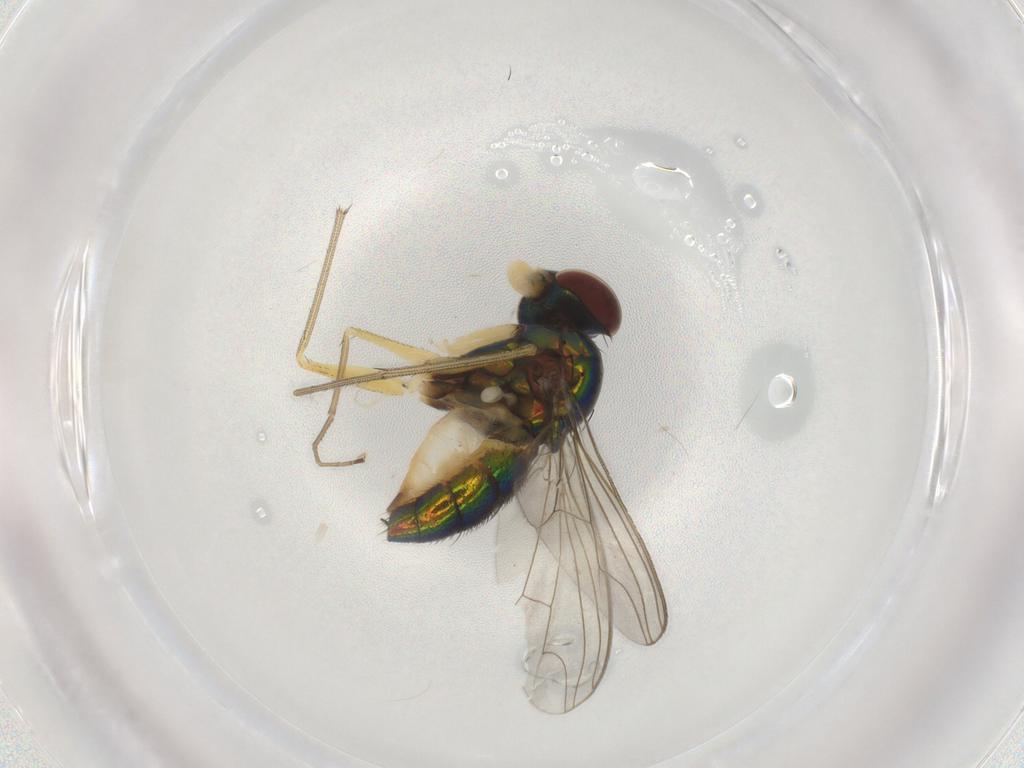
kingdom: Animalia
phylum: Arthropoda
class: Insecta
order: Diptera
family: Dolichopodidae
